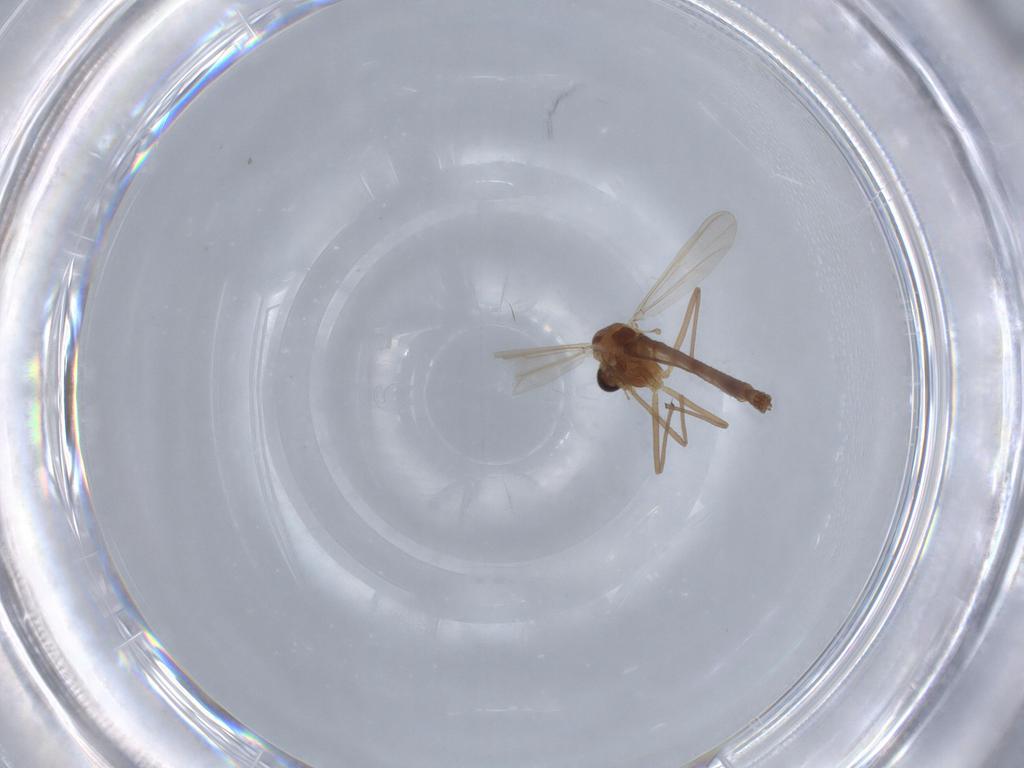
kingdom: Animalia
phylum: Arthropoda
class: Insecta
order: Diptera
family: Chironomidae
